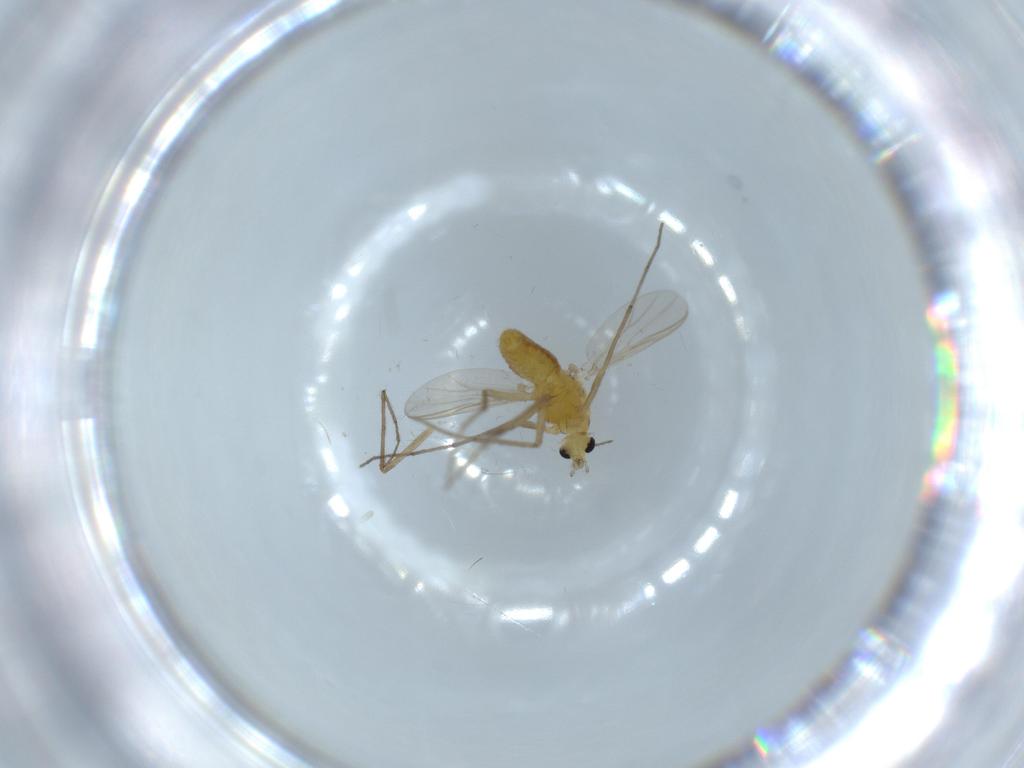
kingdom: Animalia
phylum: Arthropoda
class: Insecta
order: Diptera
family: Chironomidae
